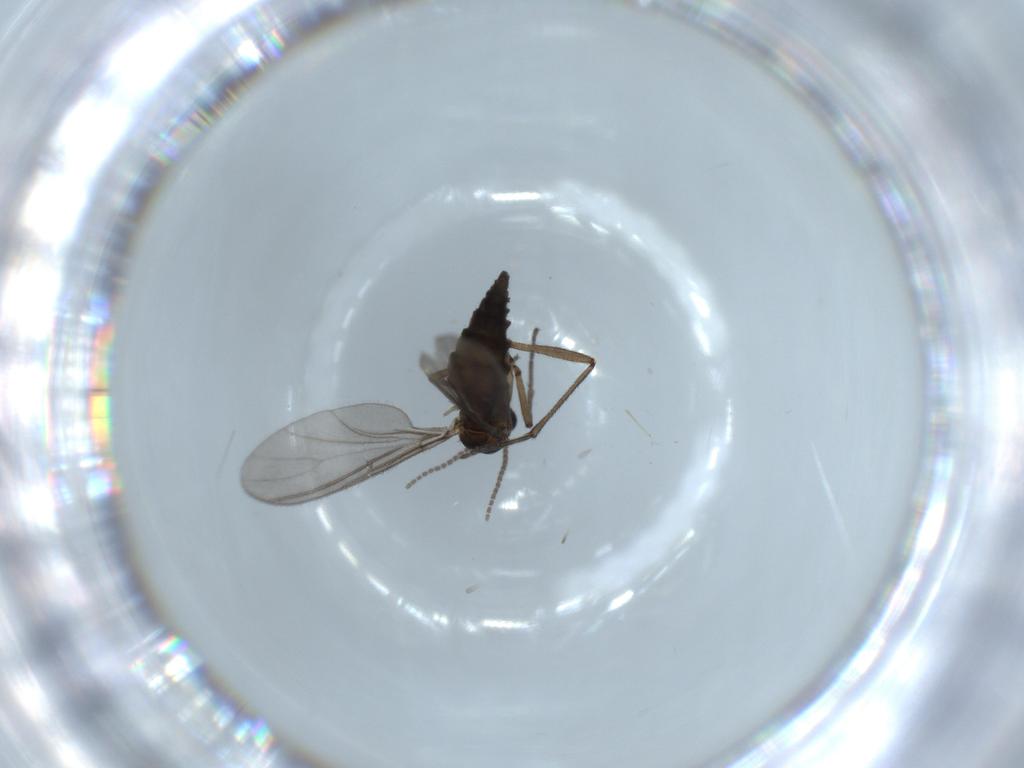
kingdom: Animalia
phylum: Arthropoda
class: Insecta
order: Diptera
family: Sciaridae
